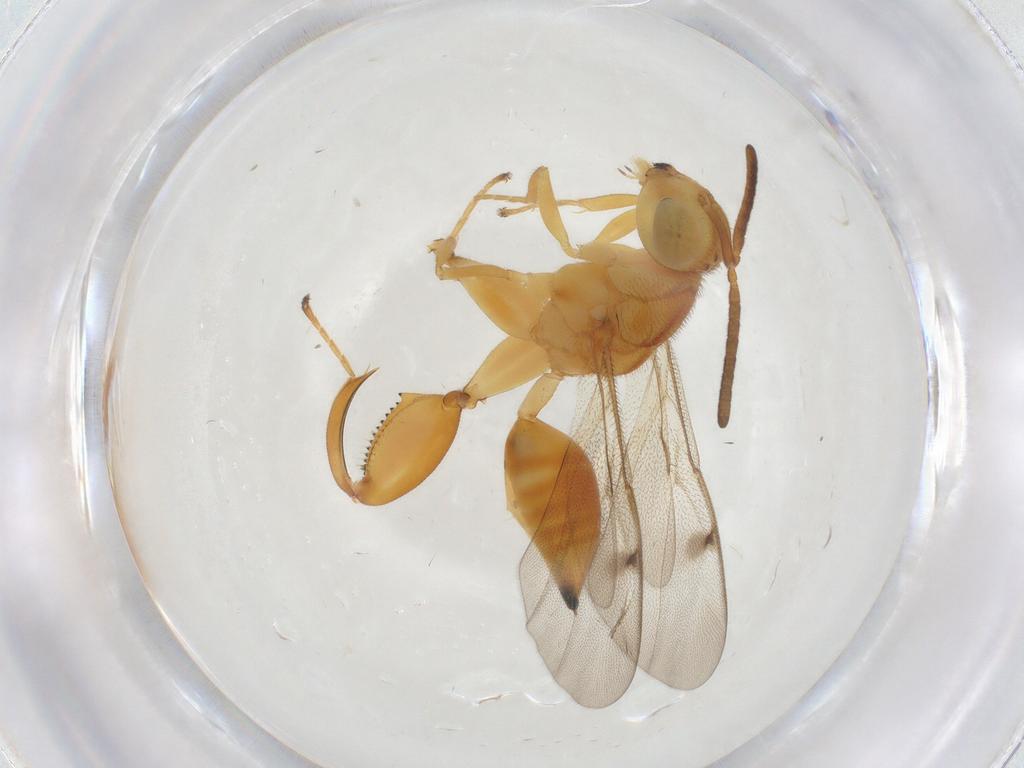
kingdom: Animalia
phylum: Arthropoda
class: Insecta
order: Hymenoptera
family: Chalcididae
